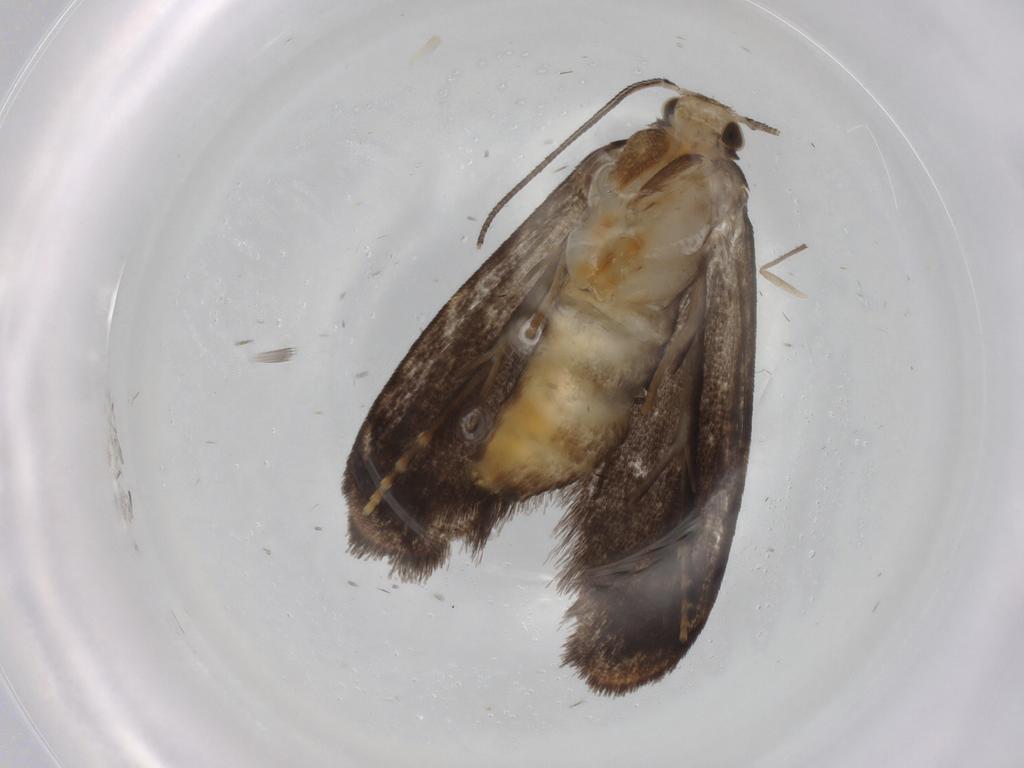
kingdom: Animalia
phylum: Arthropoda
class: Insecta
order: Lepidoptera
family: Dryadaulidae
